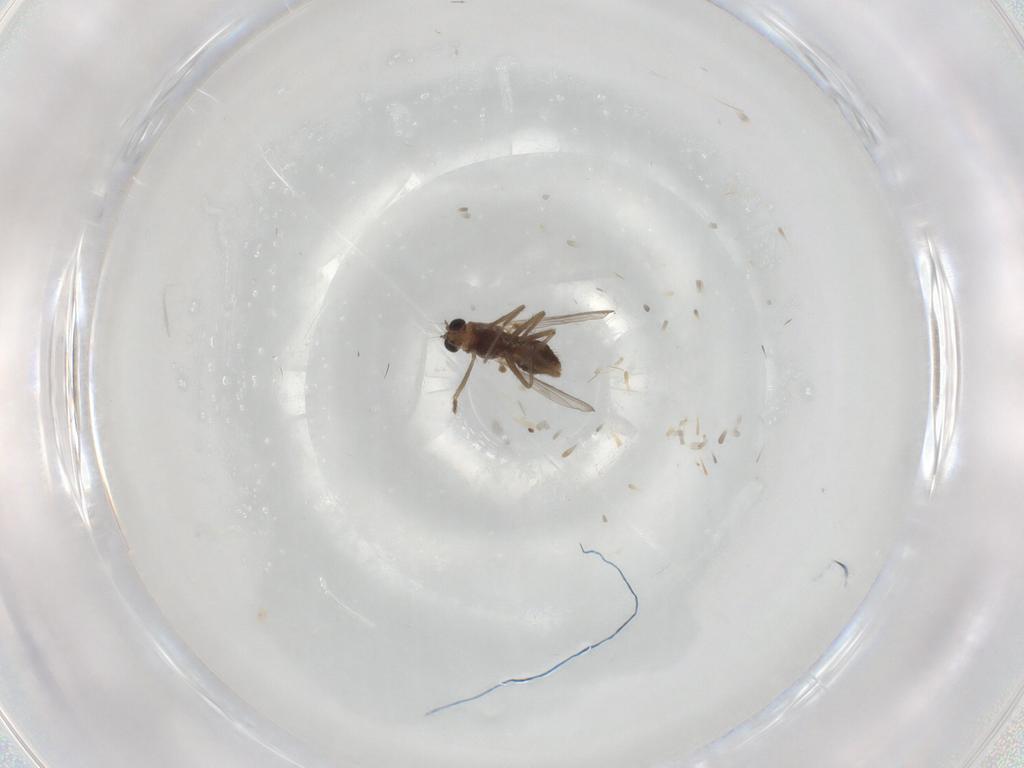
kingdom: Animalia
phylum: Arthropoda
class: Insecta
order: Diptera
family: Chironomidae
